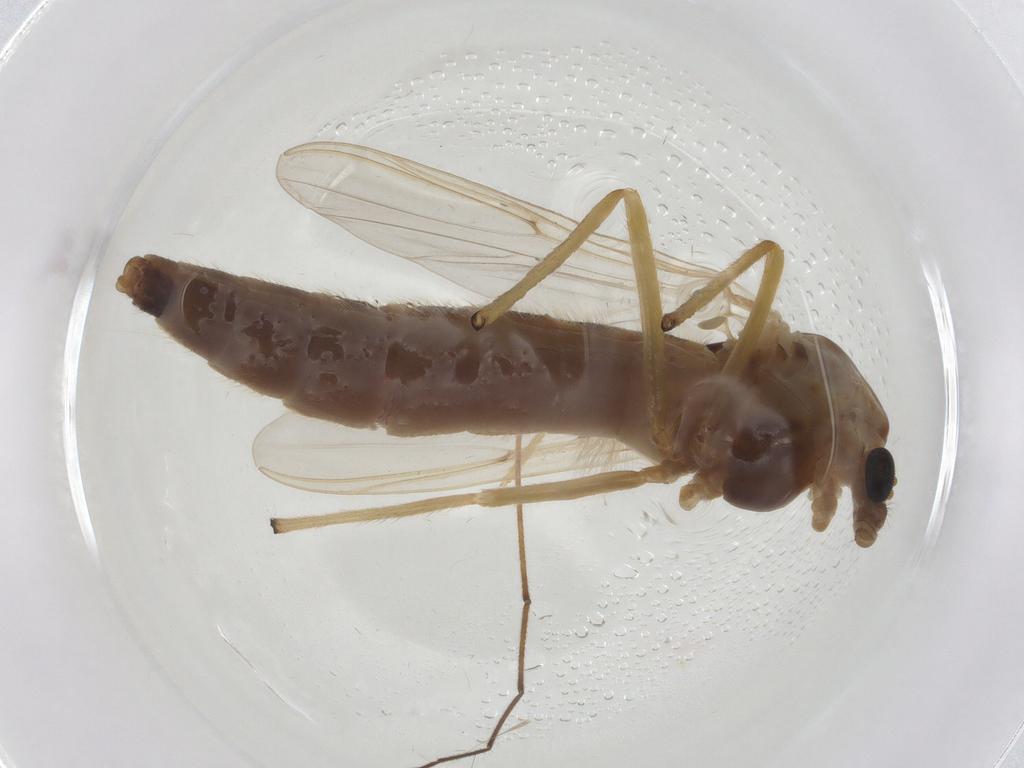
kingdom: Animalia
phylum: Arthropoda
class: Insecta
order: Diptera
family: Chironomidae
